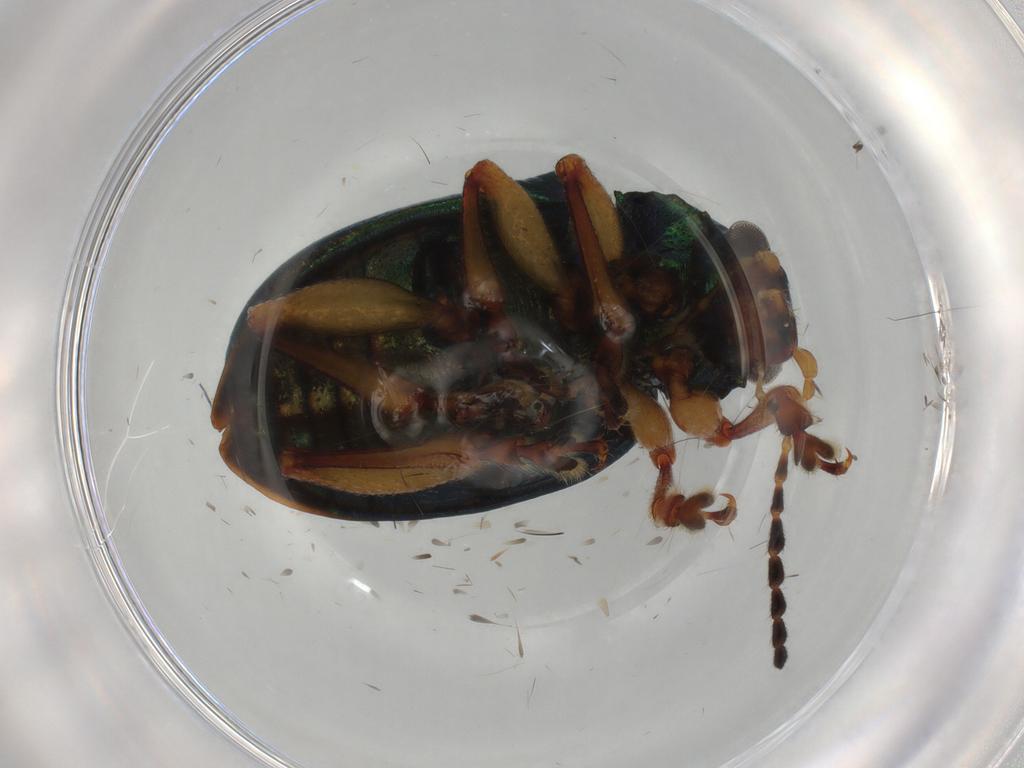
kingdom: Animalia
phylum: Arthropoda
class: Insecta
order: Coleoptera
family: Chrysomelidae
